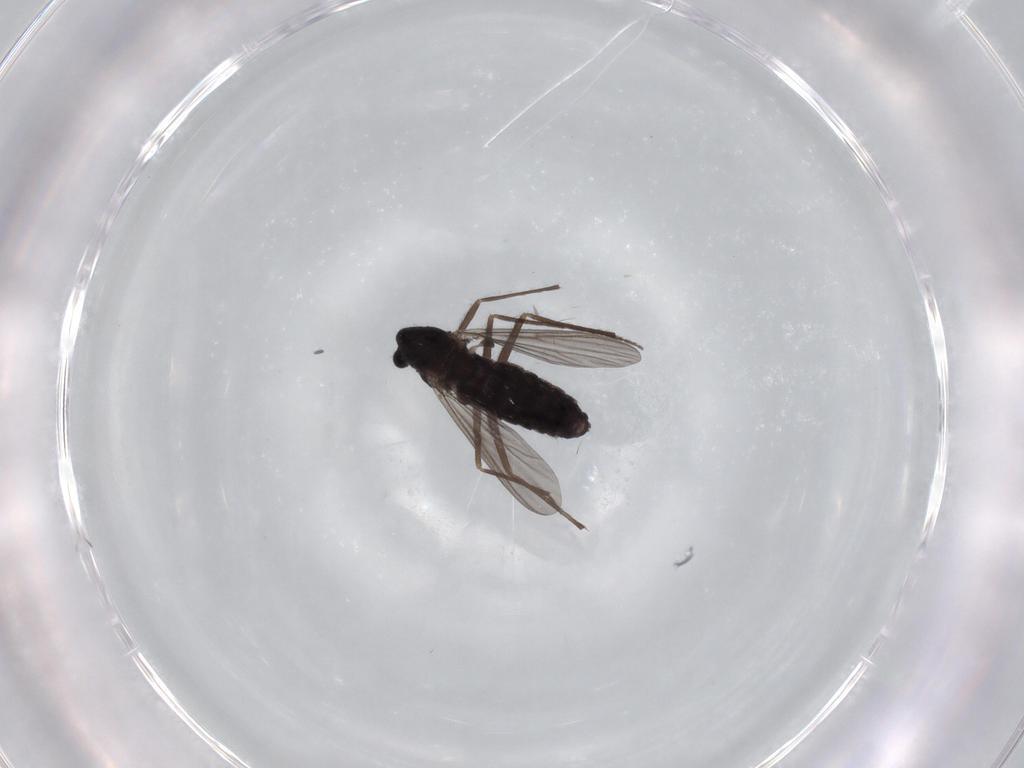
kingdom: Animalia
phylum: Arthropoda
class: Insecta
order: Diptera
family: Chironomidae
